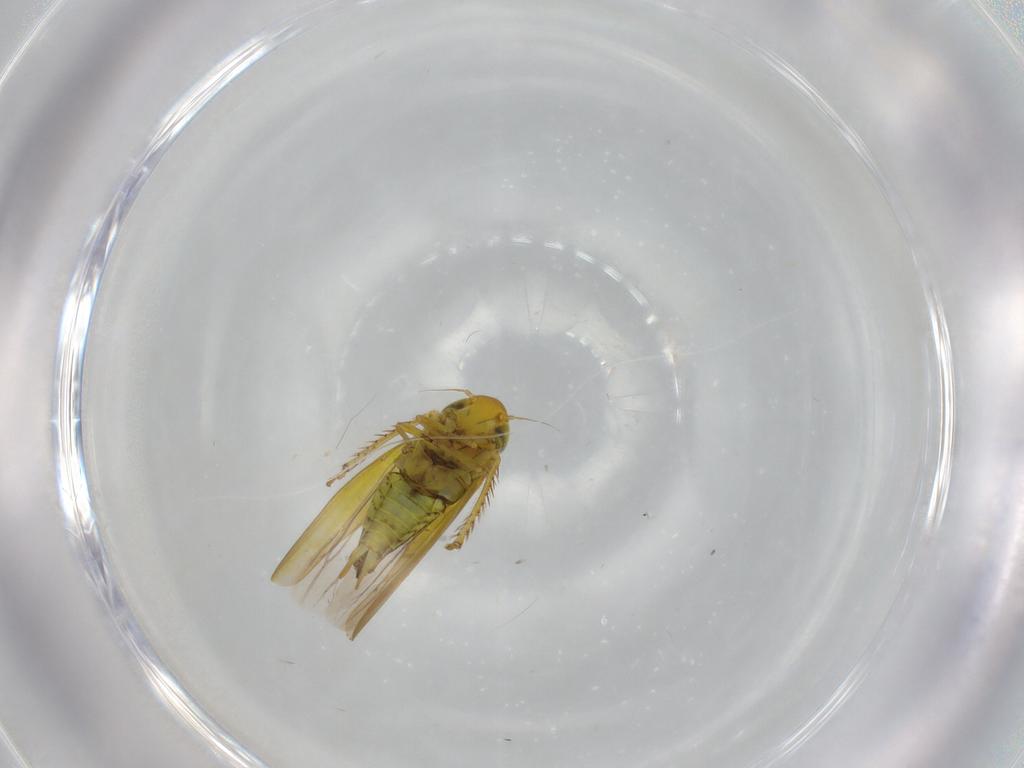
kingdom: Animalia
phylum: Arthropoda
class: Insecta
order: Hemiptera
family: Cicadellidae
